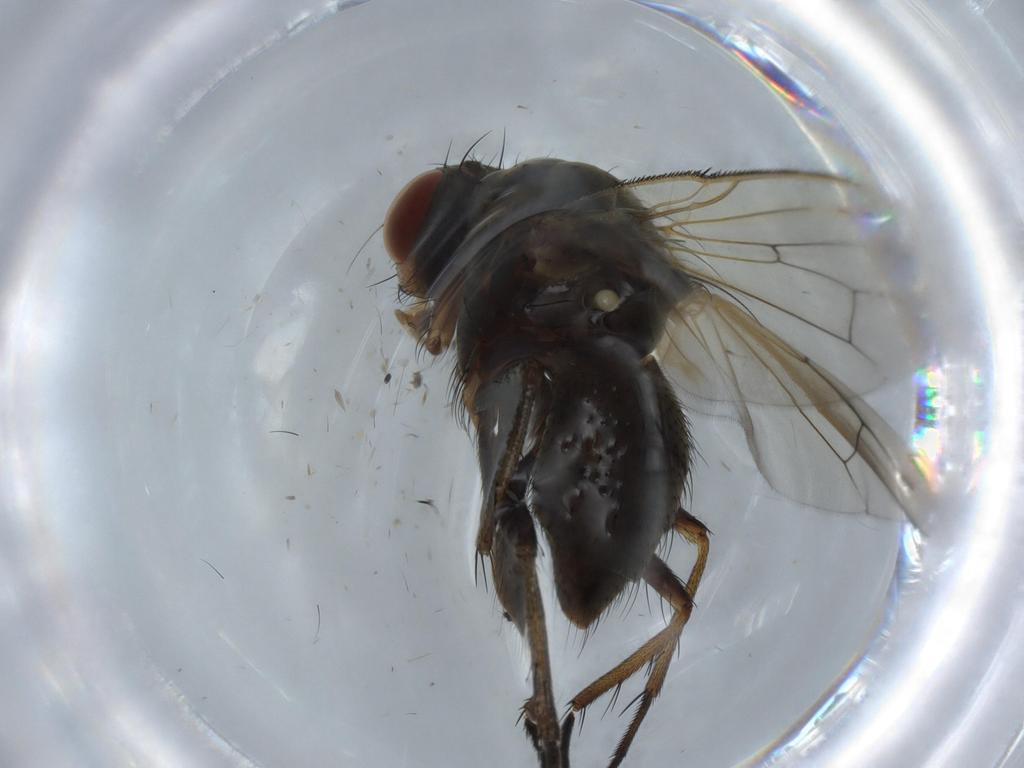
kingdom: Animalia
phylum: Arthropoda
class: Insecta
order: Diptera
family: Anthomyiidae
